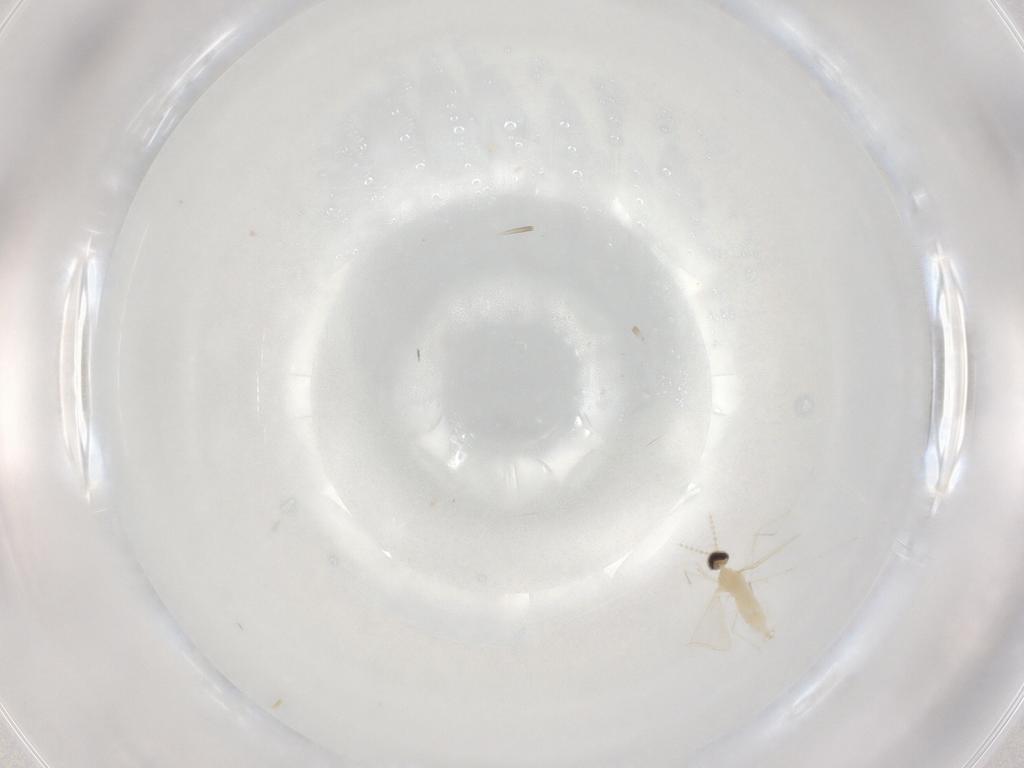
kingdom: Animalia
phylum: Arthropoda
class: Insecta
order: Diptera
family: Cecidomyiidae
